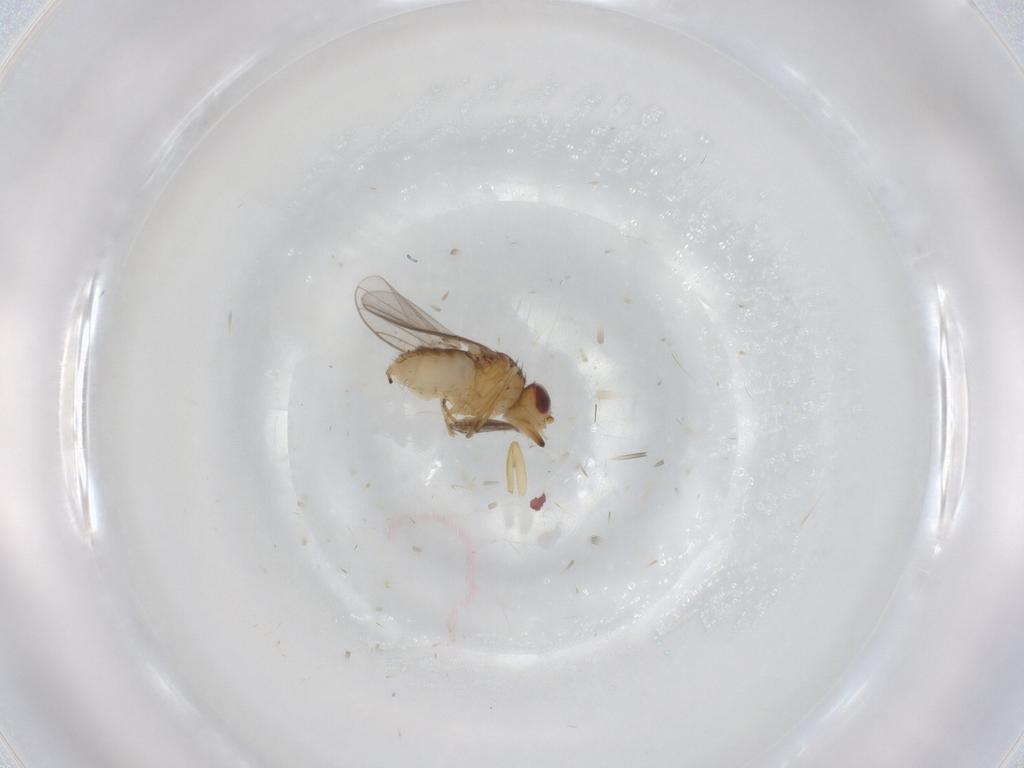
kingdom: Animalia
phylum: Arthropoda
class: Insecta
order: Diptera
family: Chloropidae
